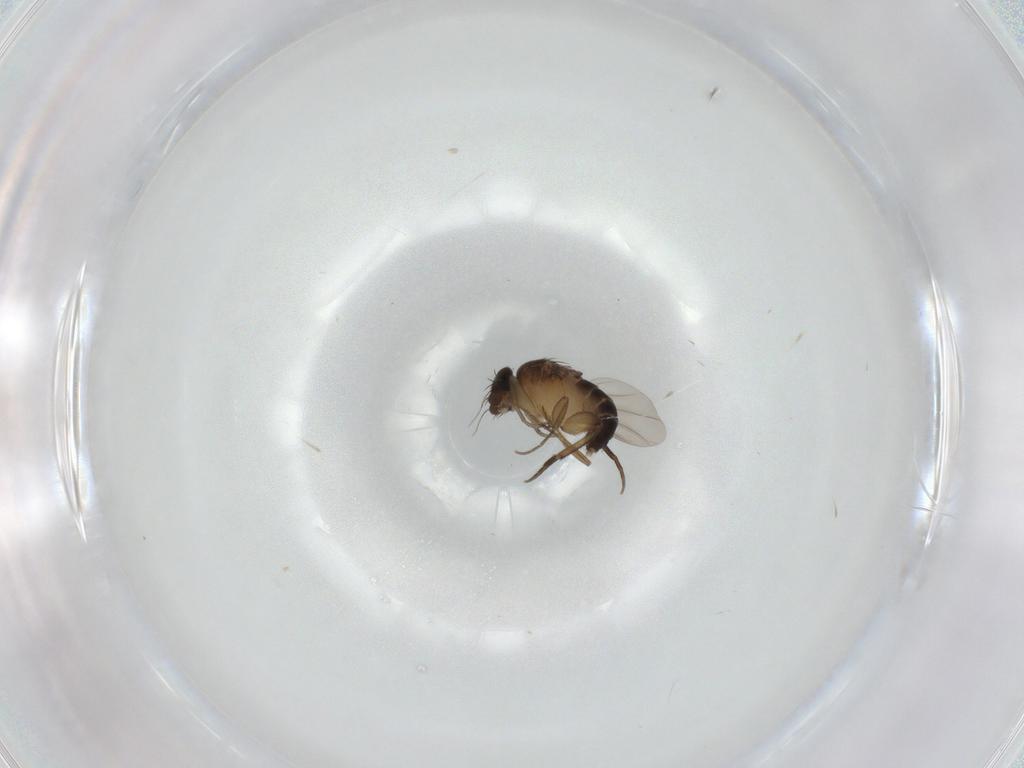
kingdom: Animalia
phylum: Arthropoda
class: Insecta
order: Diptera
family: Phoridae
